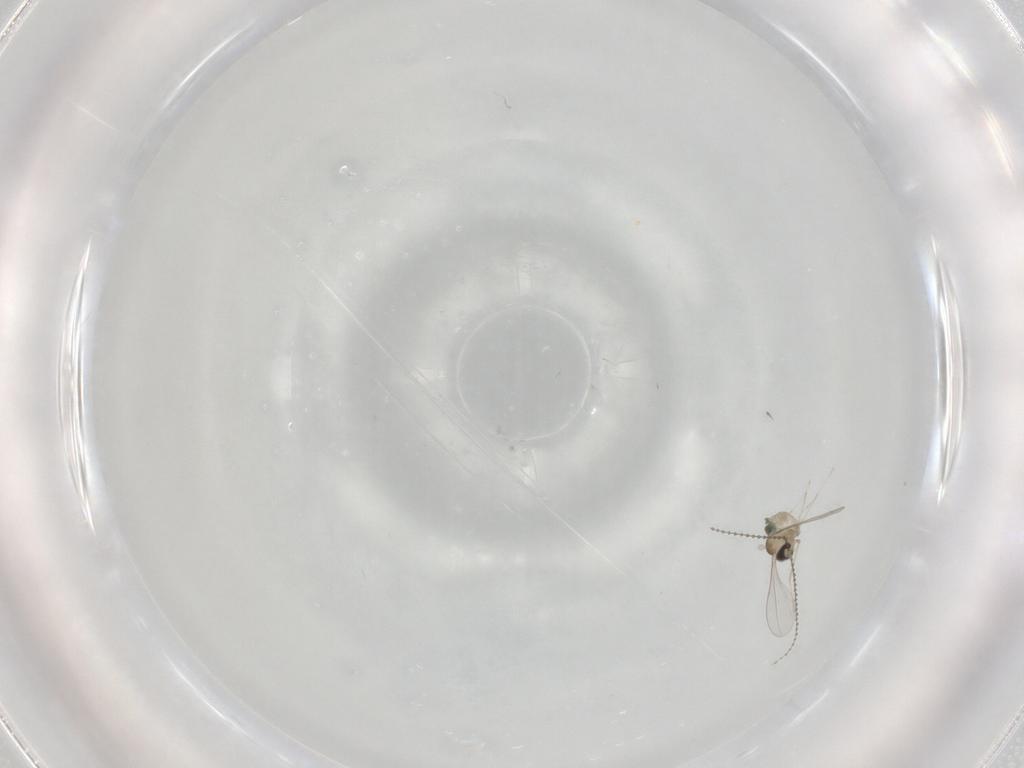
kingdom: Animalia
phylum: Arthropoda
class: Insecta
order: Diptera
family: Cecidomyiidae
